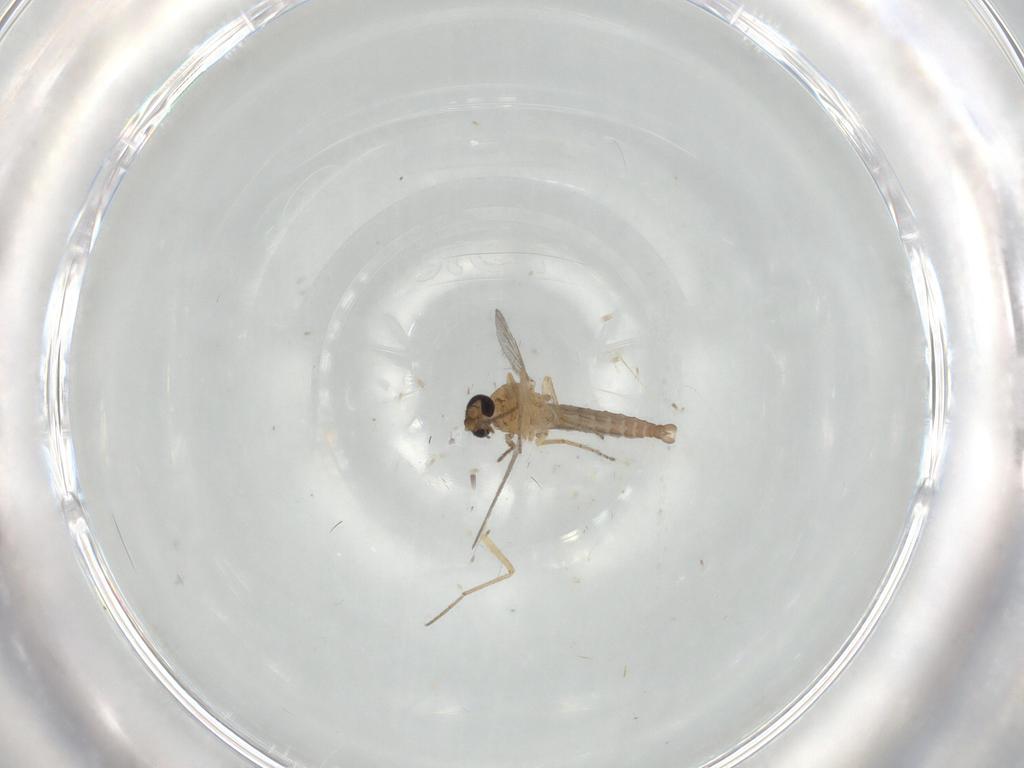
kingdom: Animalia
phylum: Arthropoda
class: Insecta
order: Diptera
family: Ceratopogonidae
